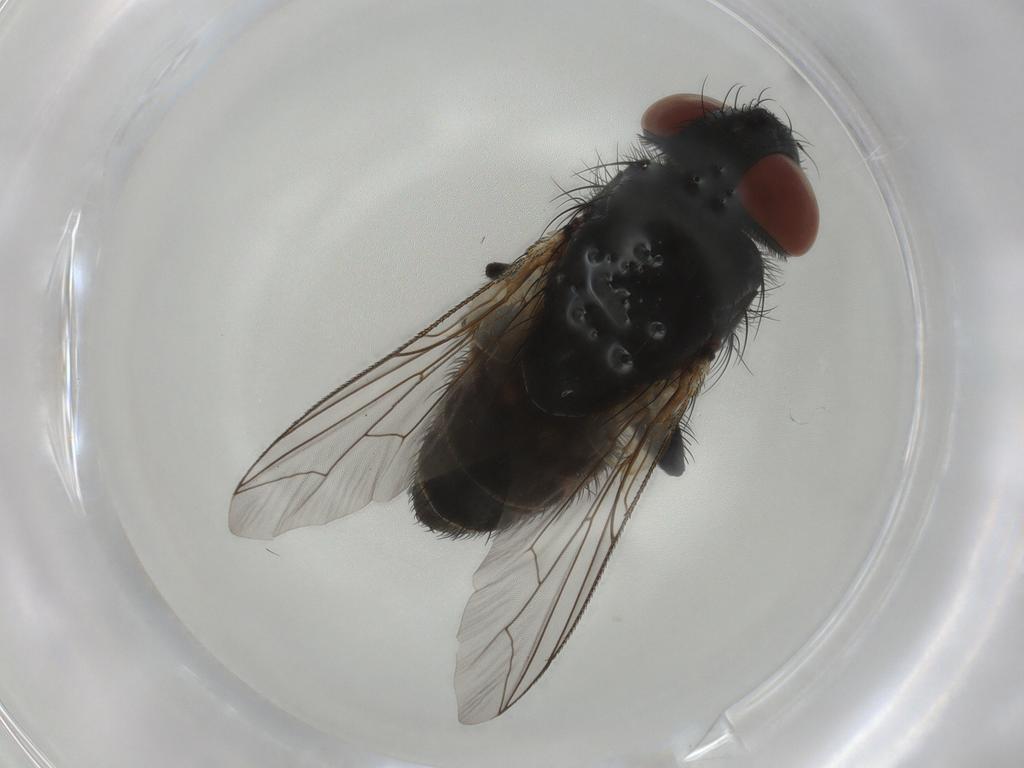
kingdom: Animalia
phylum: Arthropoda
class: Insecta
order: Diptera
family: Sarcophagidae
